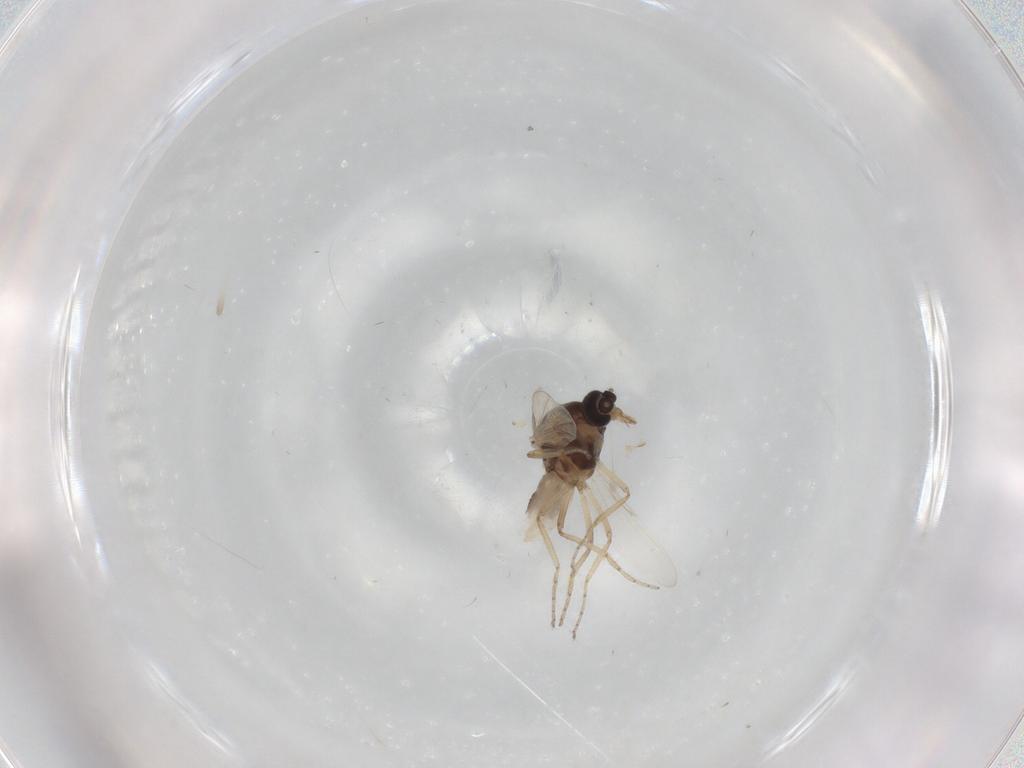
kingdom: Animalia
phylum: Arthropoda
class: Insecta
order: Diptera
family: Ceratopogonidae
